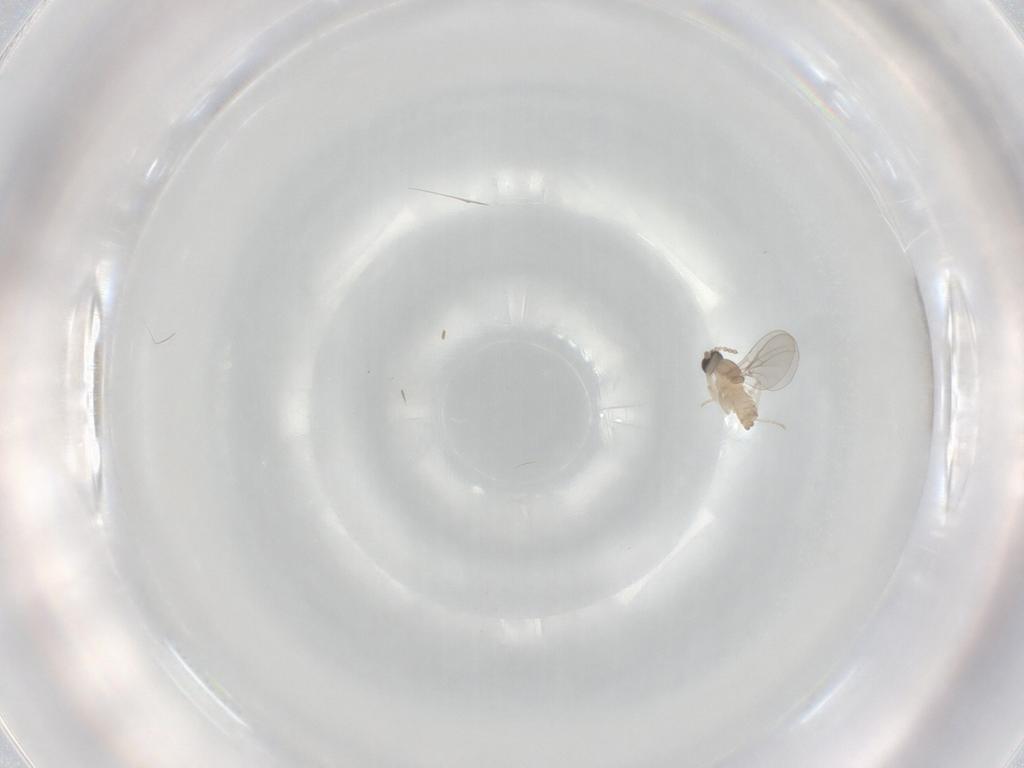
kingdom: Animalia
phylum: Arthropoda
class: Insecta
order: Diptera
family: Cecidomyiidae
